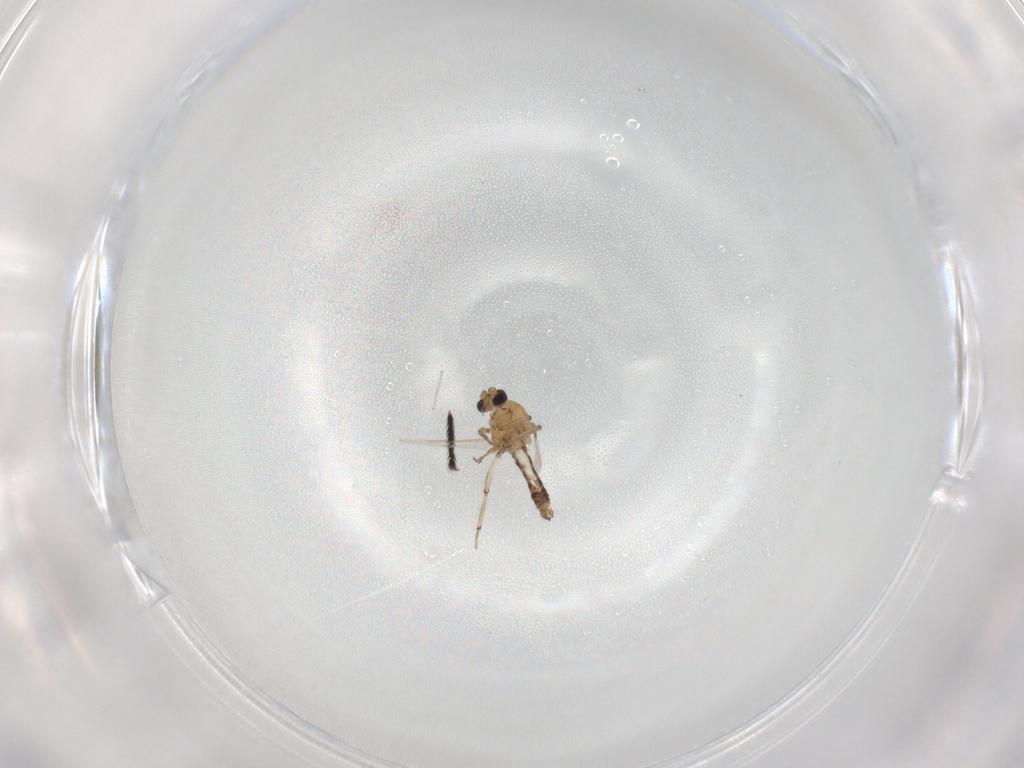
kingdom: Animalia
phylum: Arthropoda
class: Insecta
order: Diptera
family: Ceratopogonidae
